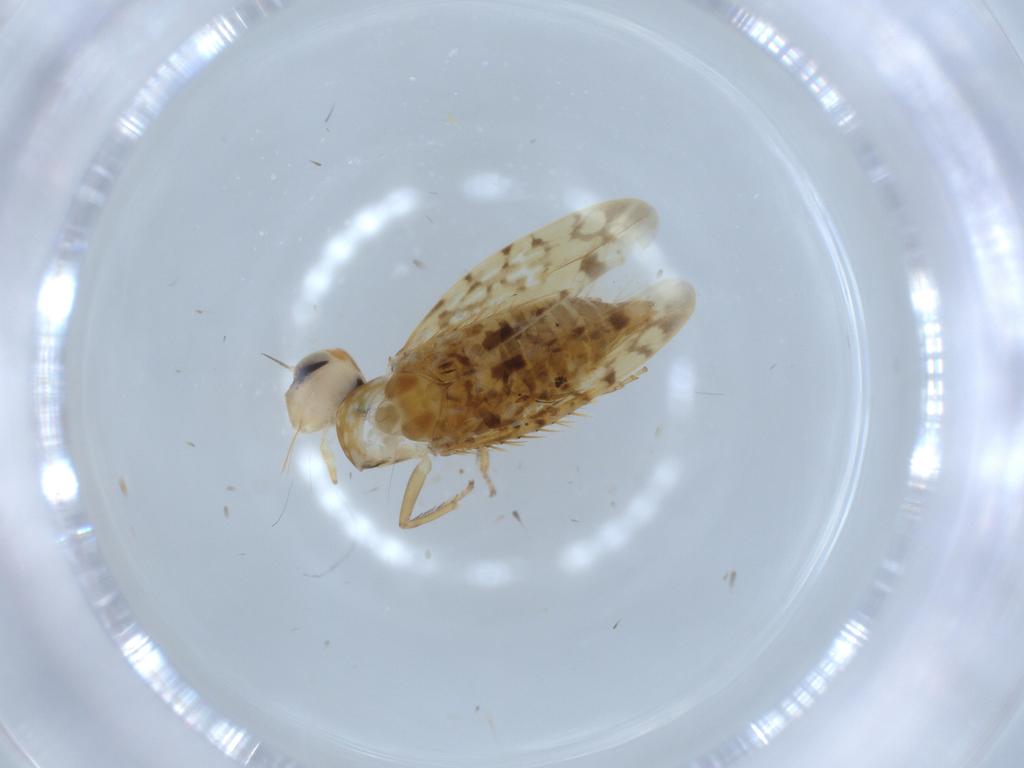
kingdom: Animalia
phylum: Arthropoda
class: Insecta
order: Hemiptera
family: Cicadellidae
